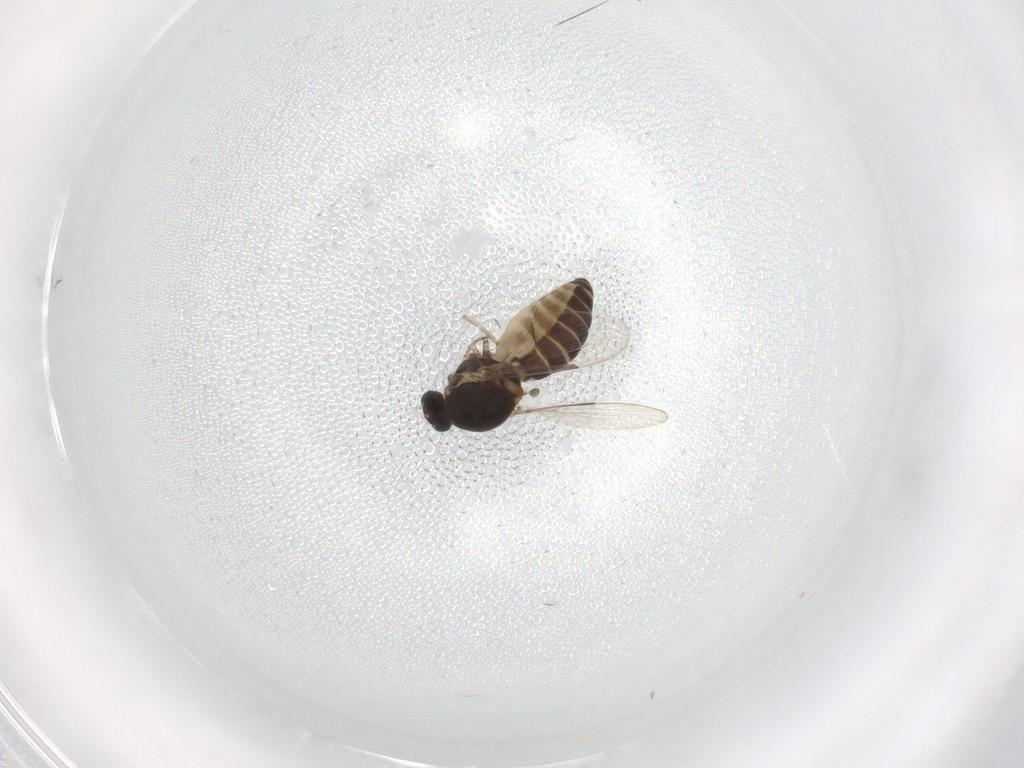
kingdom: Animalia
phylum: Arthropoda
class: Insecta
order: Diptera
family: Ceratopogonidae
